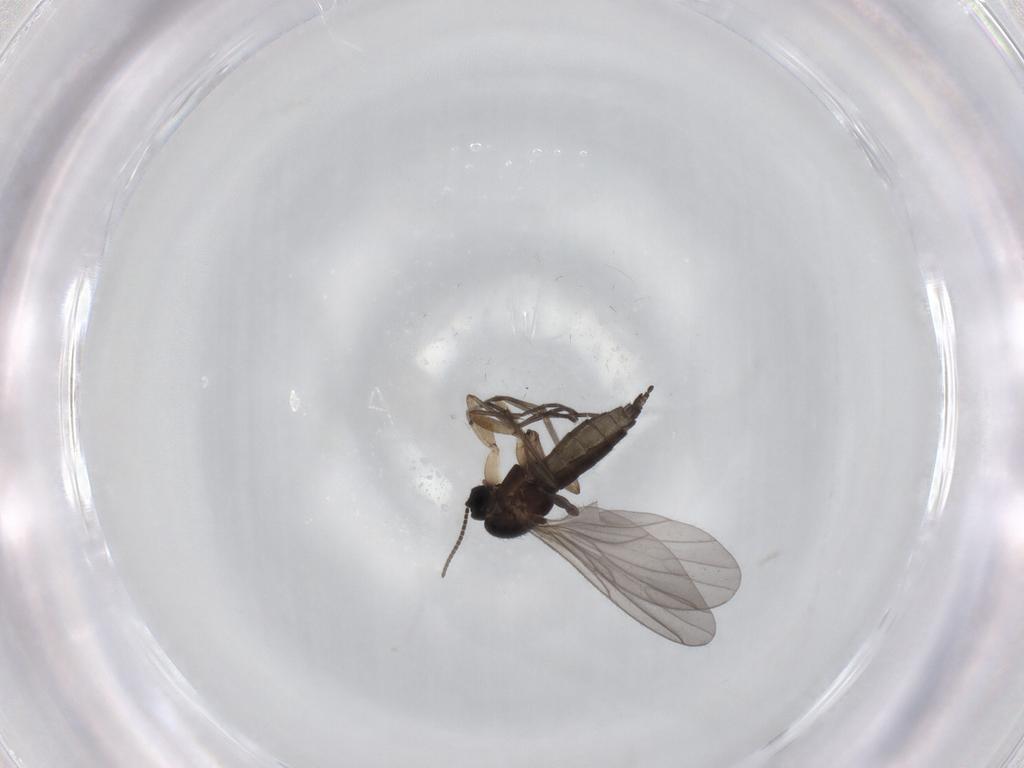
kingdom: Animalia
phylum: Arthropoda
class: Insecta
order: Diptera
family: Sciaridae
